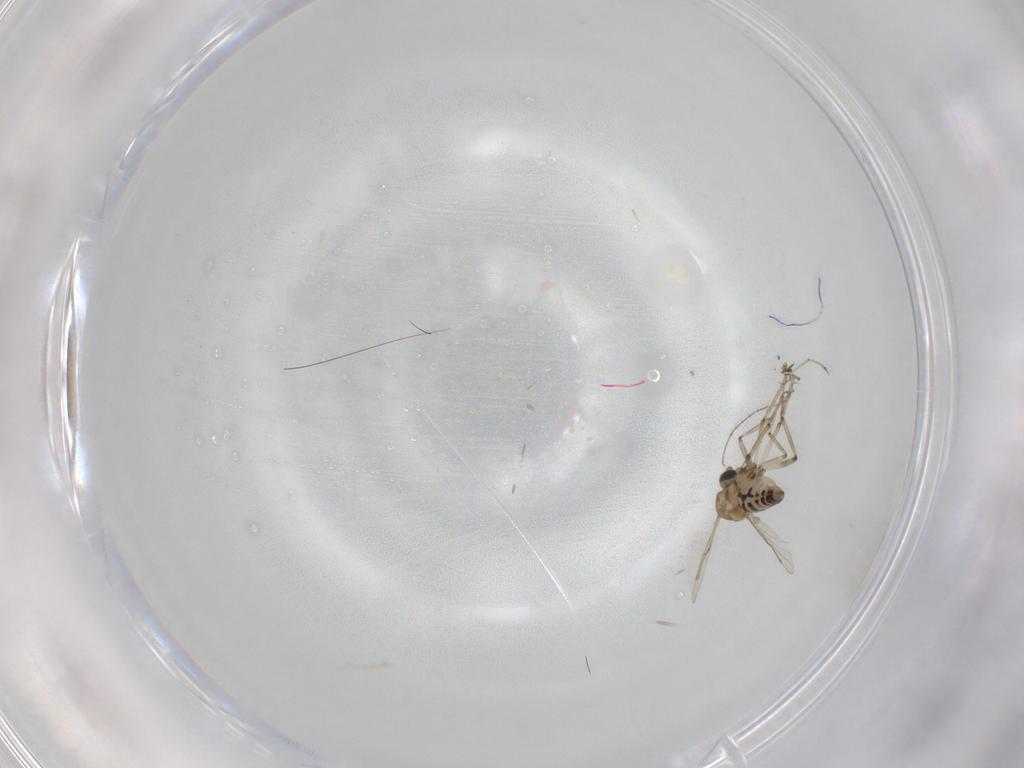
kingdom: Animalia
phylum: Arthropoda
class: Insecta
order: Diptera
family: Ceratopogonidae
